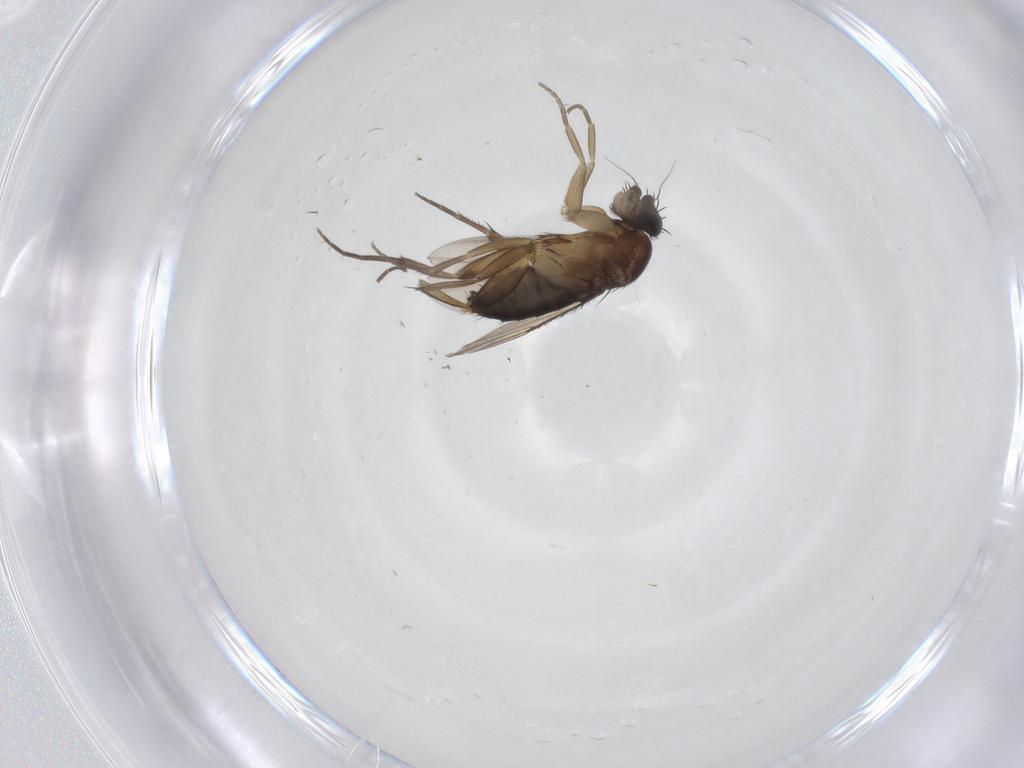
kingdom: Animalia
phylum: Arthropoda
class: Insecta
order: Diptera
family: Phoridae
